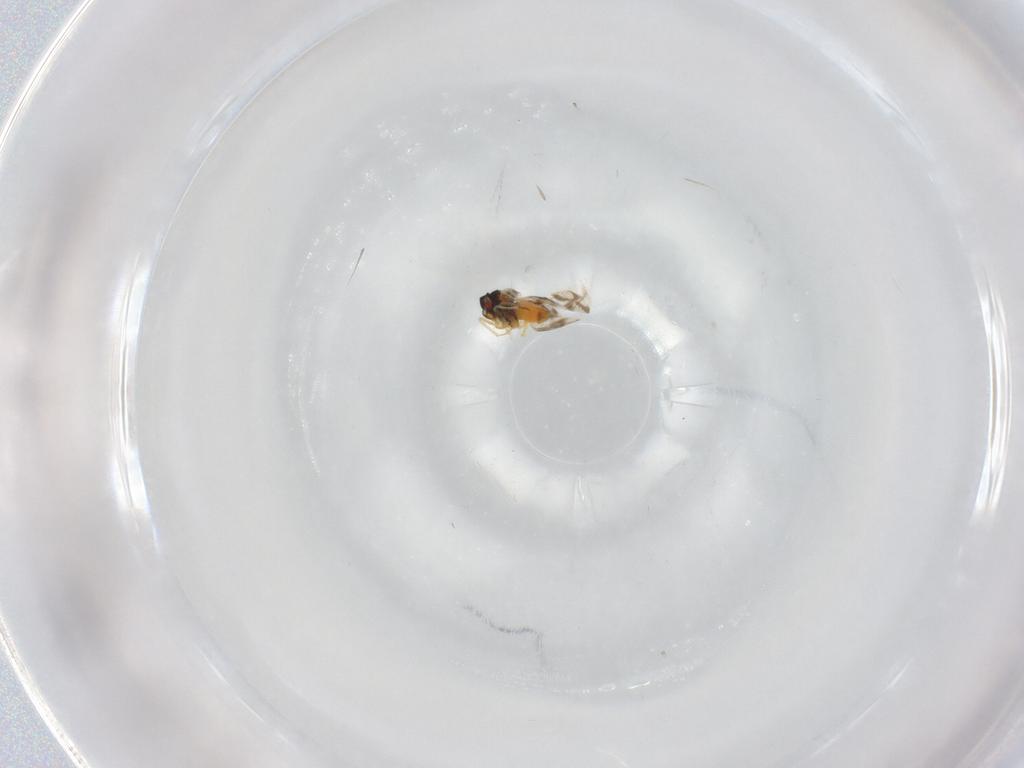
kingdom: Animalia
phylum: Arthropoda
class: Insecta
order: Hemiptera
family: Aleyrodidae
